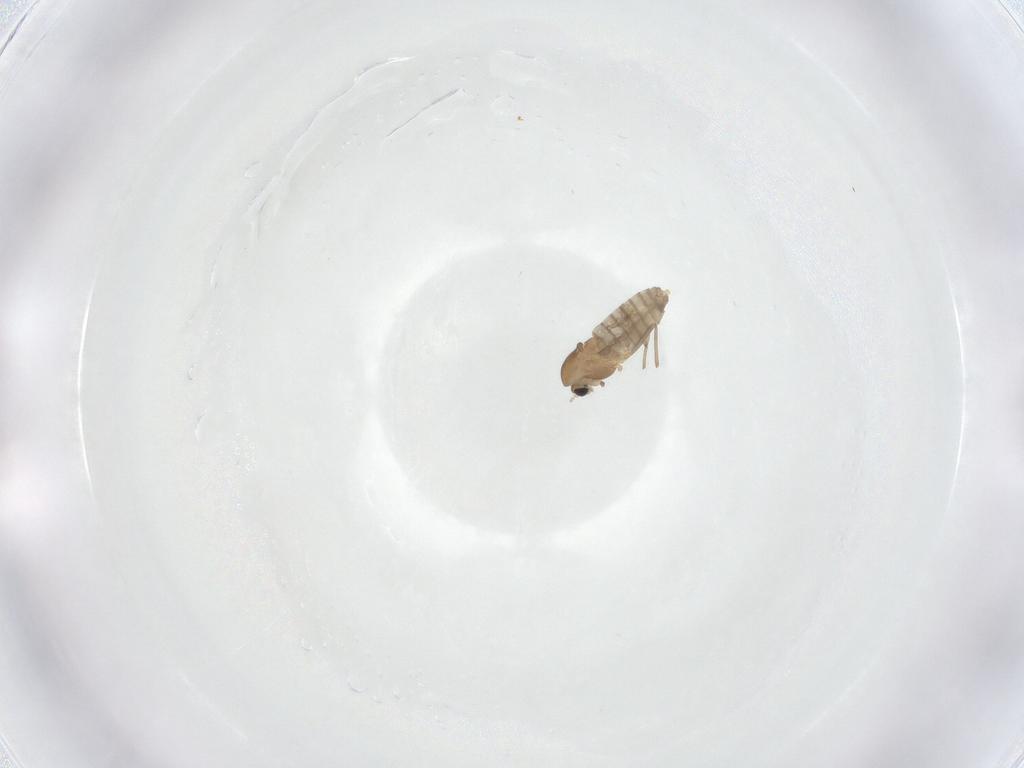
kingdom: Animalia
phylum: Arthropoda
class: Insecta
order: Diptera
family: Chironomidae
